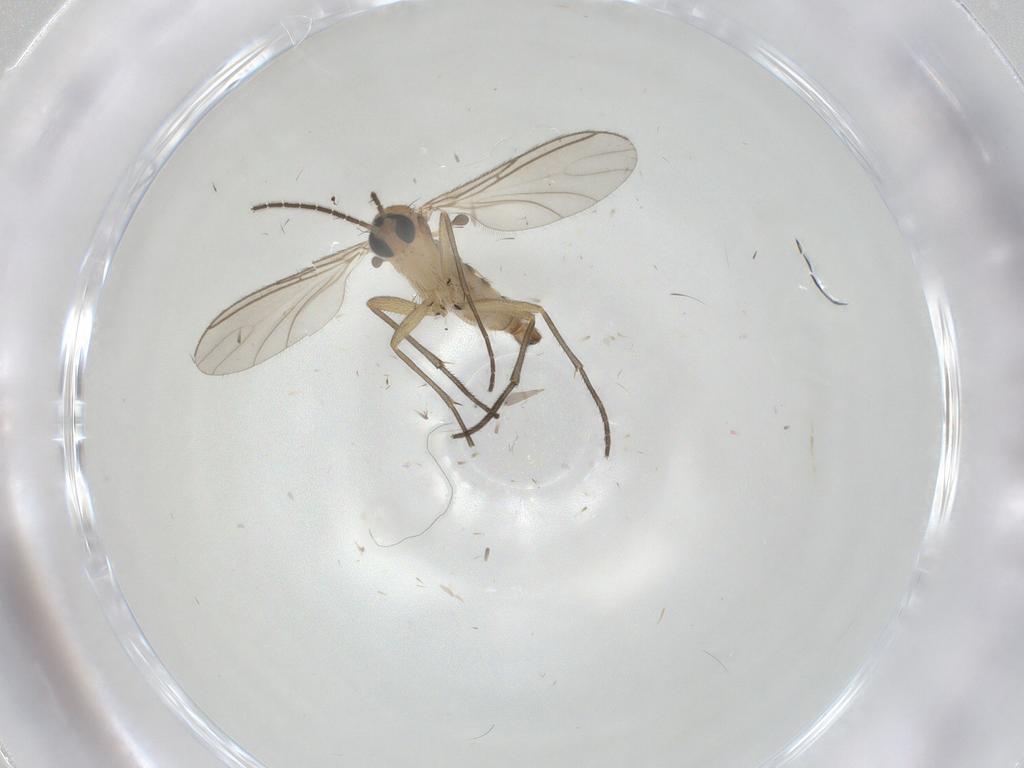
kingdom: Animalia
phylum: Arthropoda
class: Insecta
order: Diptera
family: Sciaridae
